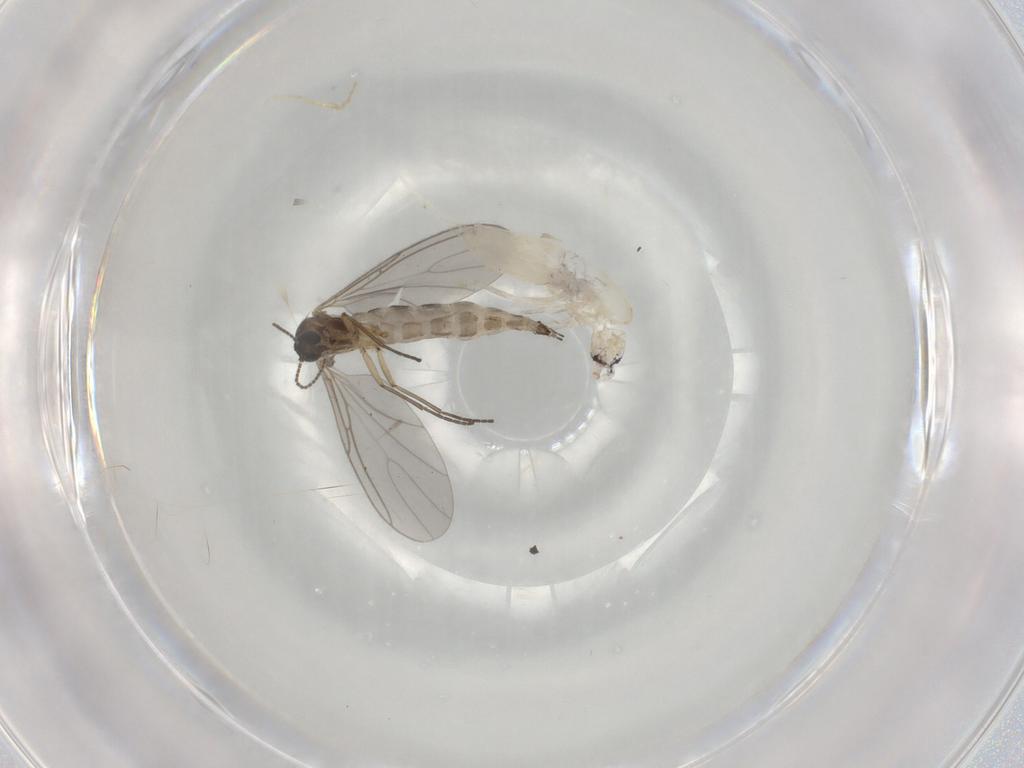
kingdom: Animalia
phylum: Arthropoda
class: Insecta
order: Diptera
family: Sciaridae
